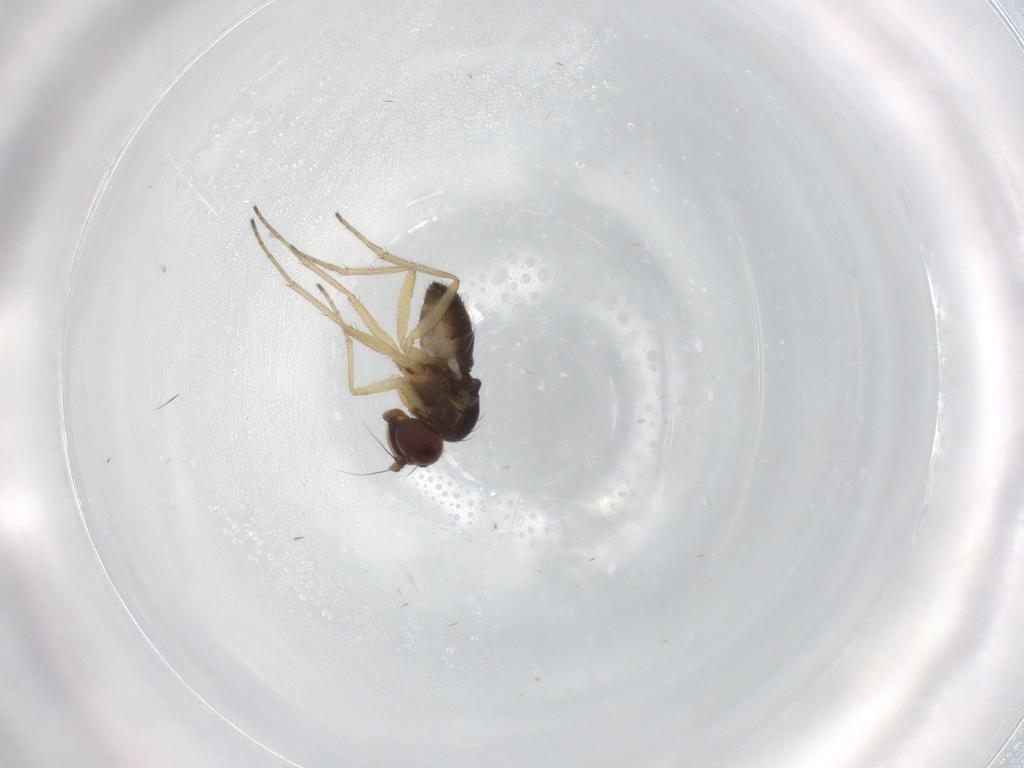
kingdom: Animalia
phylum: Arthropoda
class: Insecta
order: Diptera
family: Dolichopodidae
